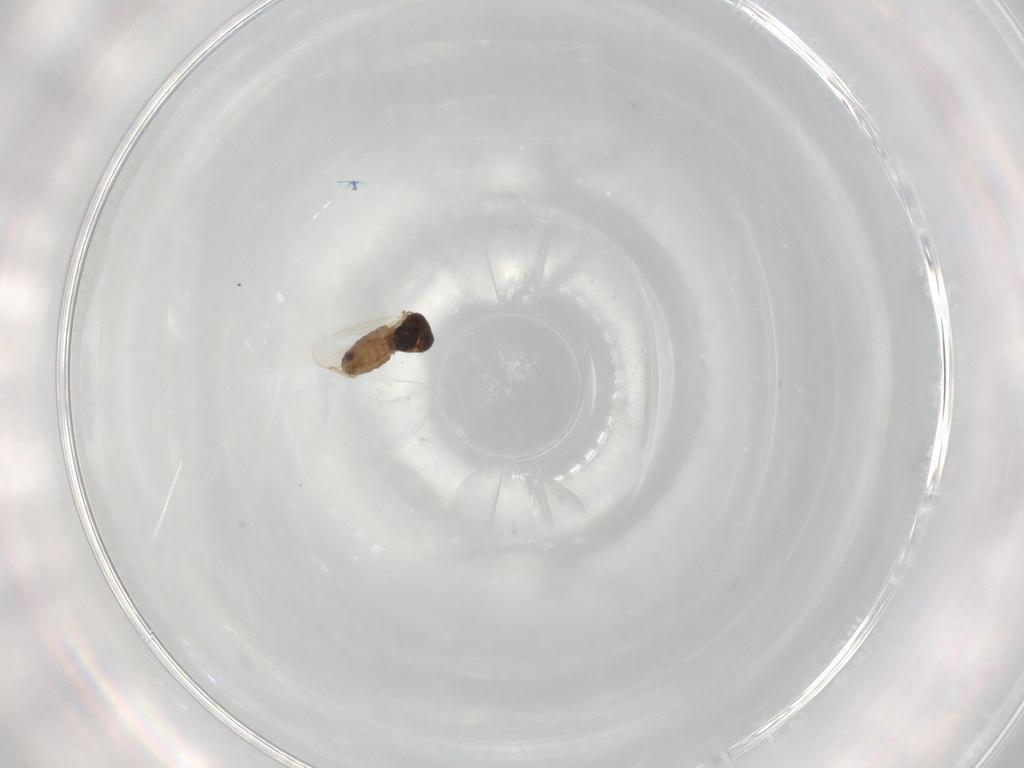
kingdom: Animalia
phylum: Arthropoda
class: Insecta
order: Diptera
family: Ceratopogonidae
